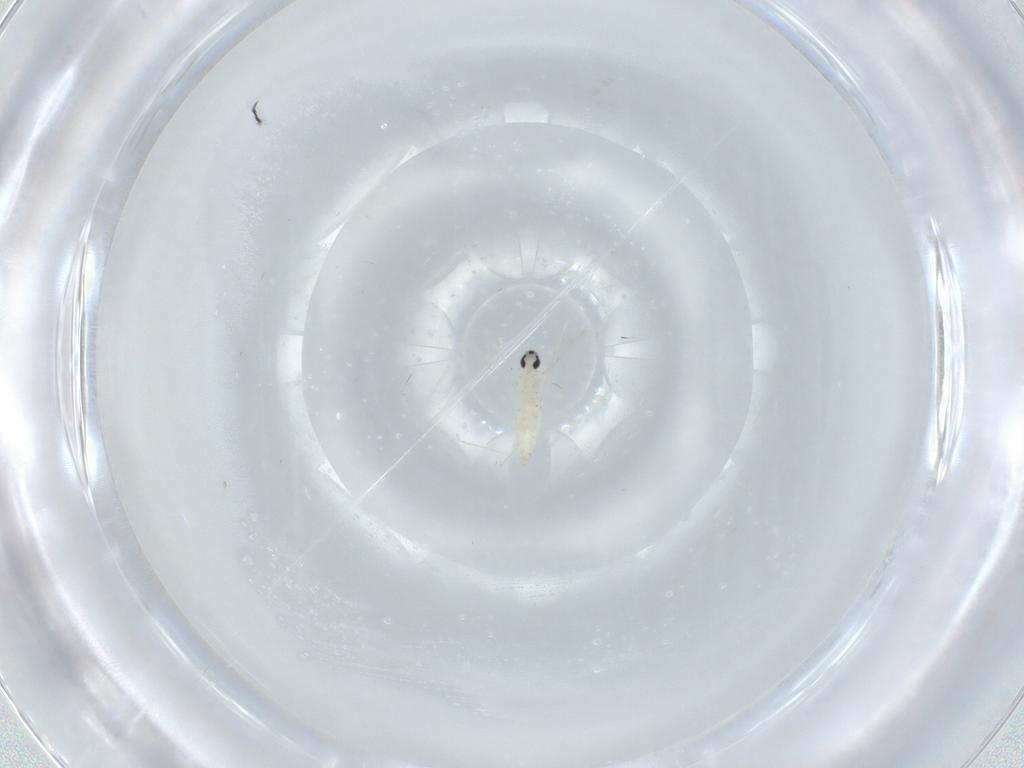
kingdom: Animalia
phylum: Arthropoda
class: Insecta
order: Diptera
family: Cecidomyiidae
